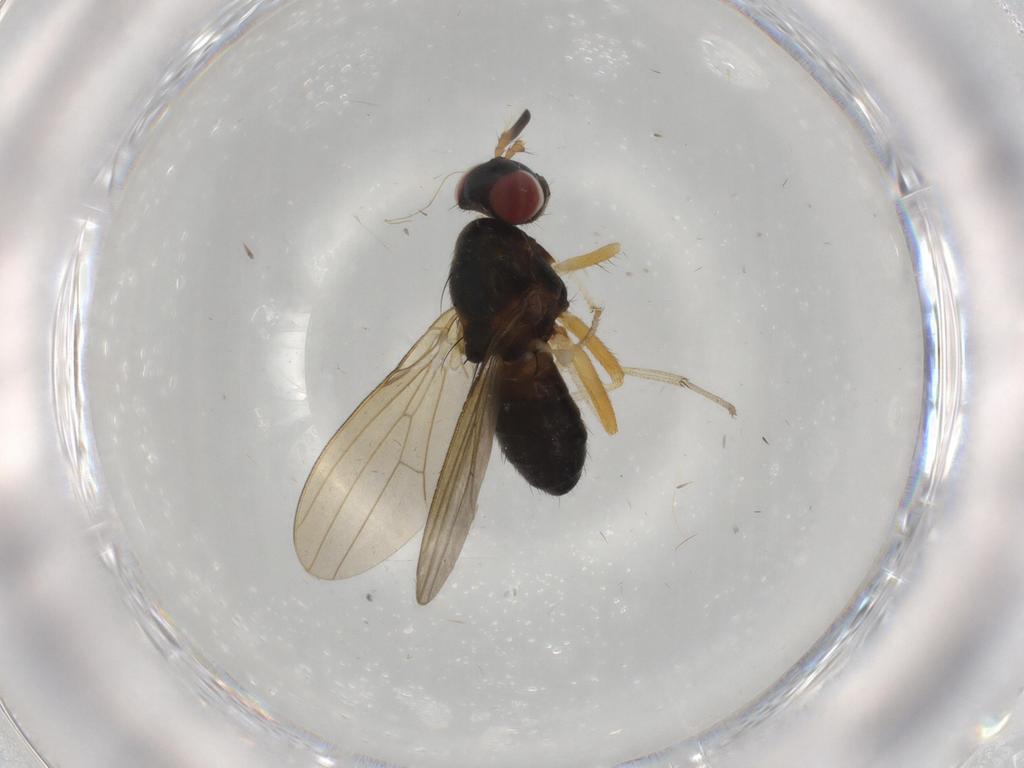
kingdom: Animalia
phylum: Arthropoda
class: Insecta
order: Diptera
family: Lauxaniidae
